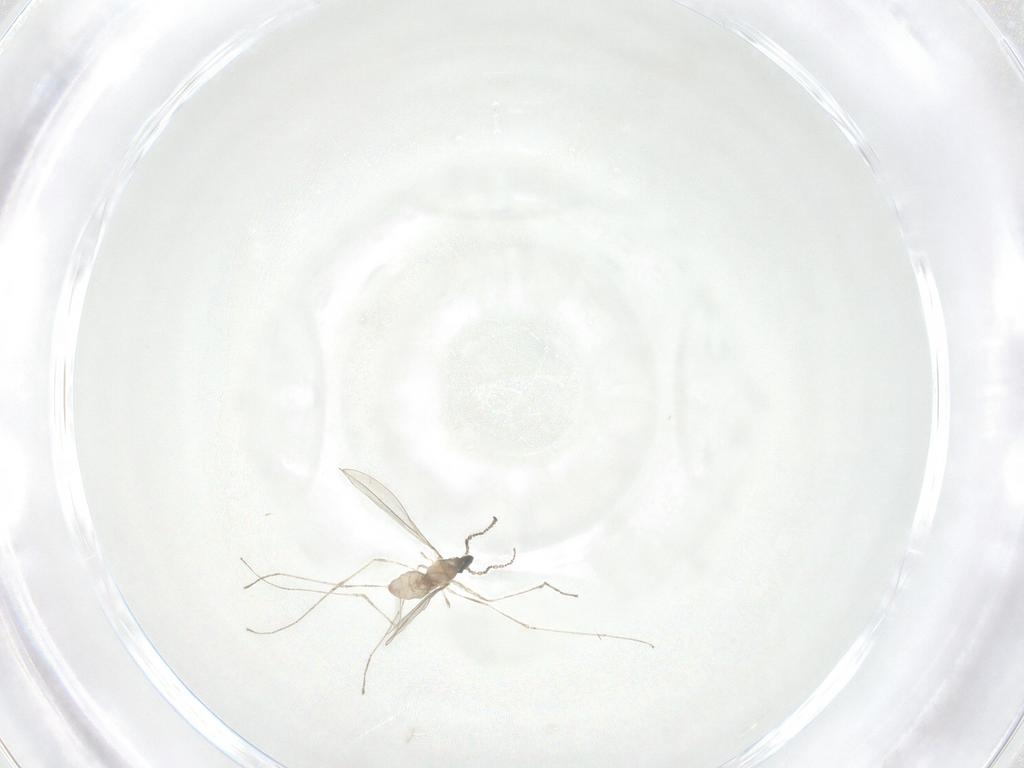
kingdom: Animalia
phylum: Arthropoda
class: Insecta
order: Diptera
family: Cecidomyiidae
